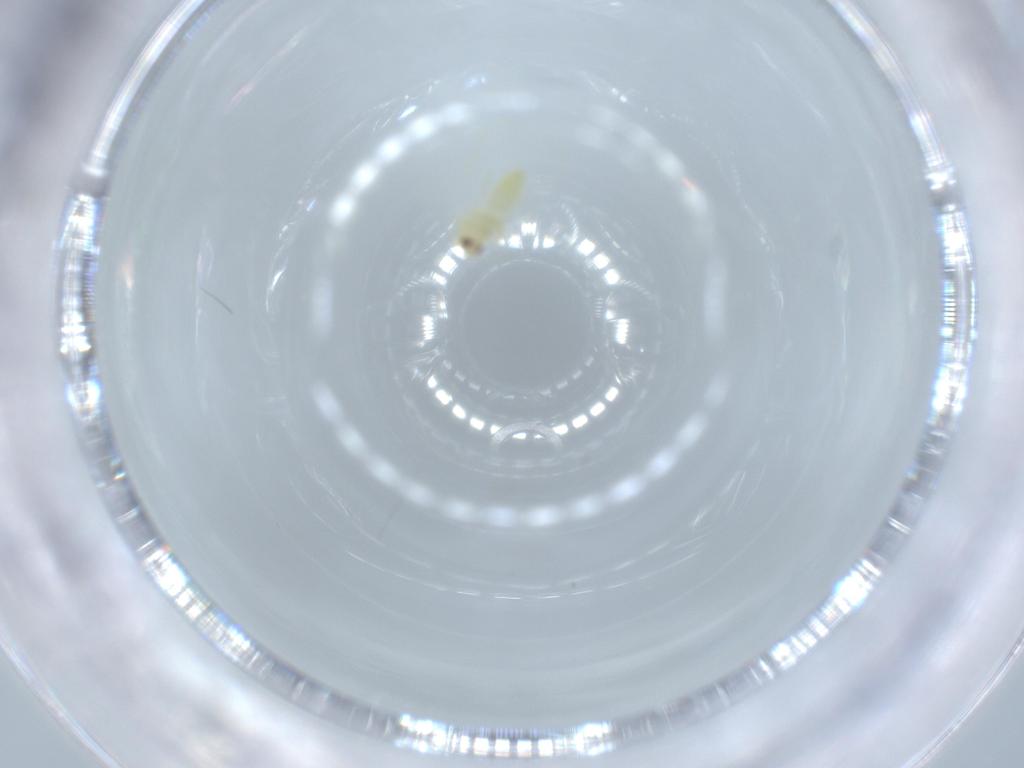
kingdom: Animalia
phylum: Arthropoda
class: Insecta
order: Hemiptera
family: Aleyrodidae
